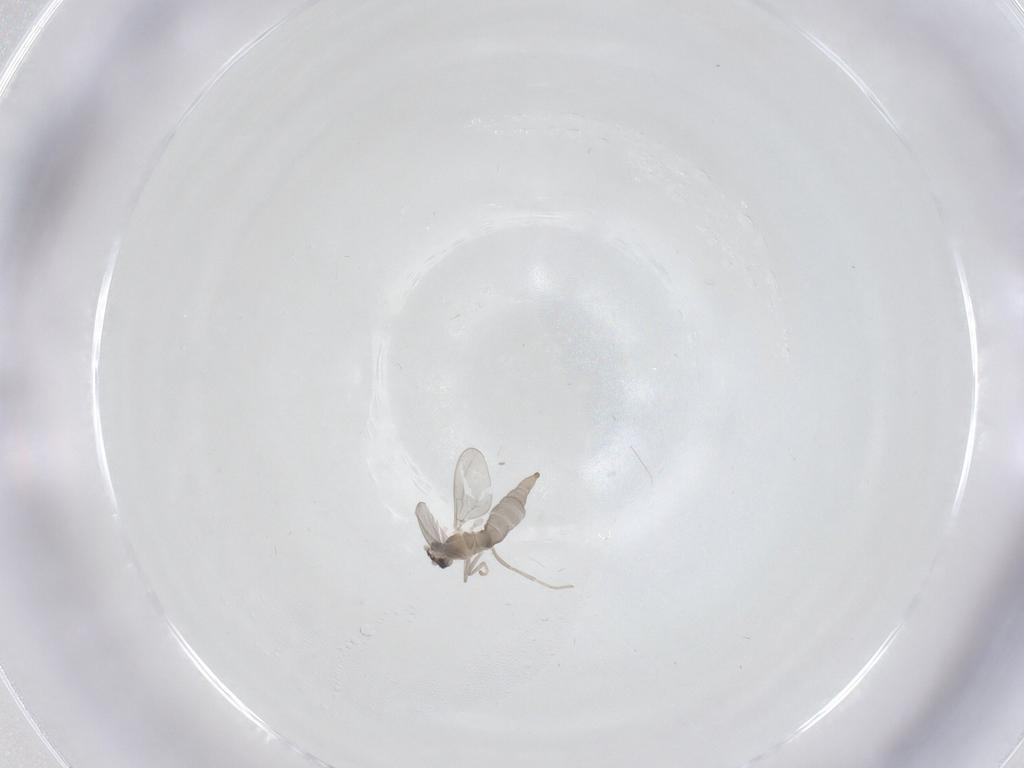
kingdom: Animalia
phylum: Arthropoda
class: Insecta
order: Diptera
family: Cecidomyiidae
